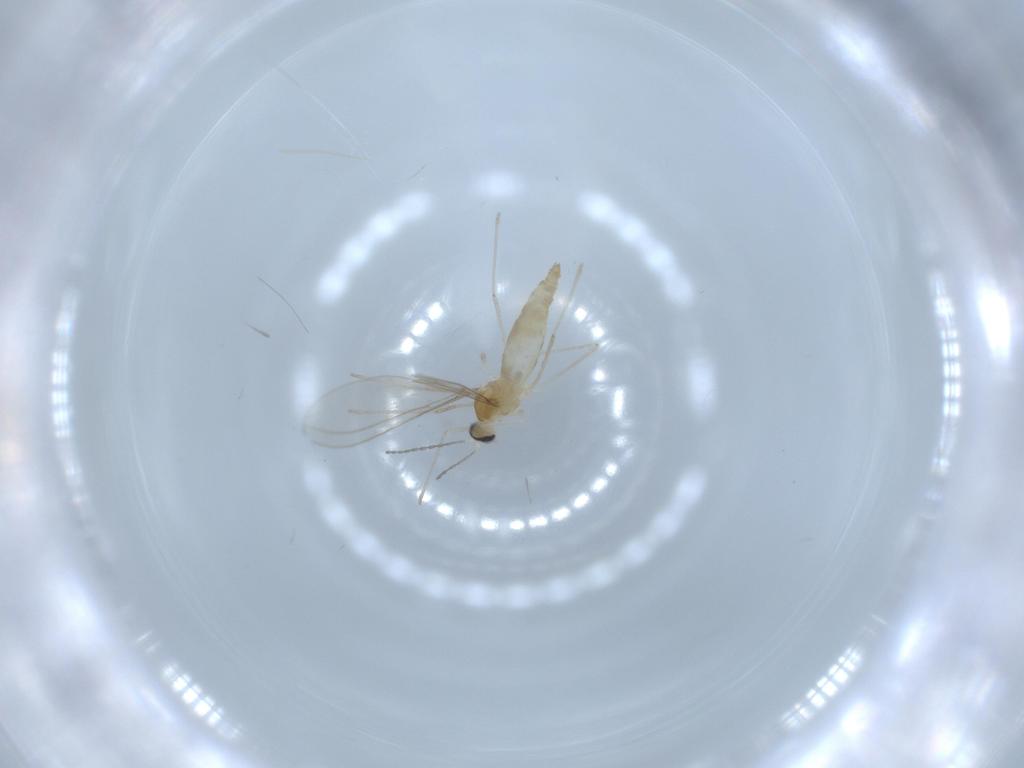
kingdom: Animalia
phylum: Arthropoda
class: Insecta
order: Diptera
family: Cecidomyiidae
